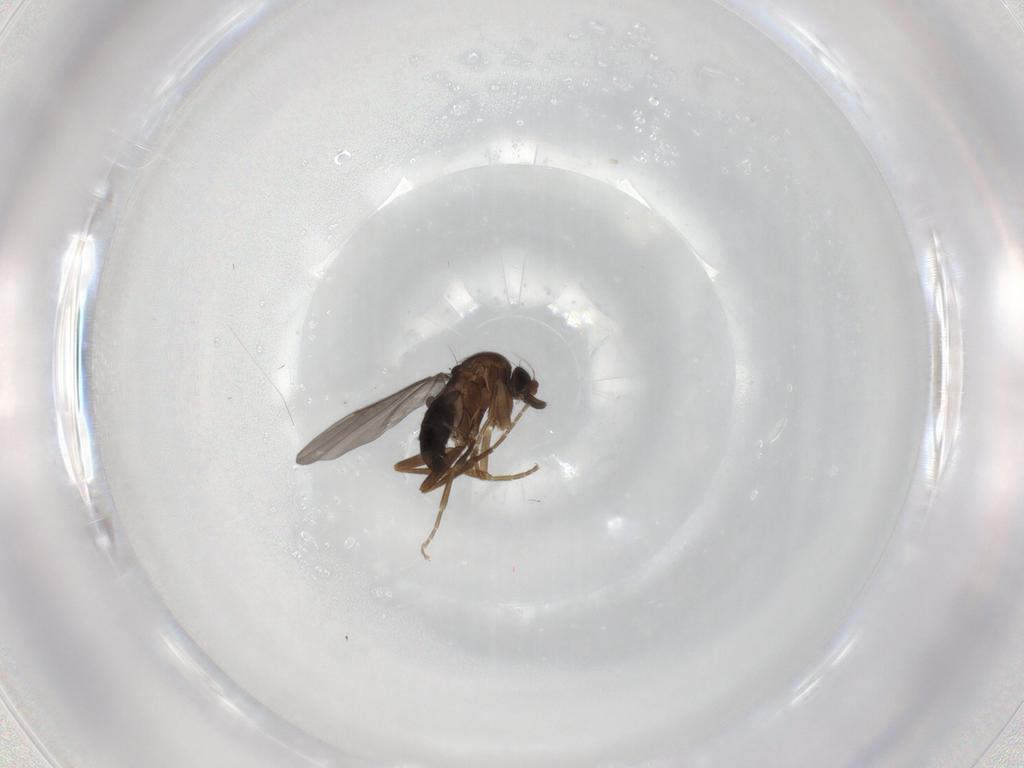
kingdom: Animalia
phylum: Arthropoda
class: Insecta
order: Diptera
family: Phoridae
